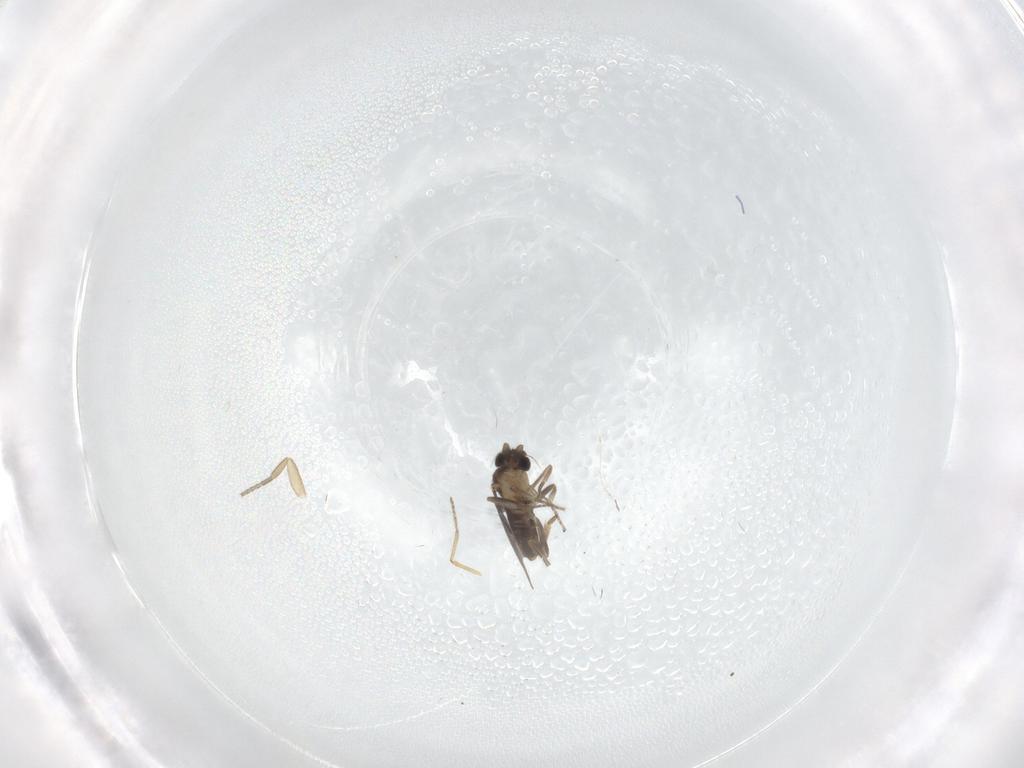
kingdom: Animalia
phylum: Arthropoda
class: Insecta
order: Diptera
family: Phoridae
